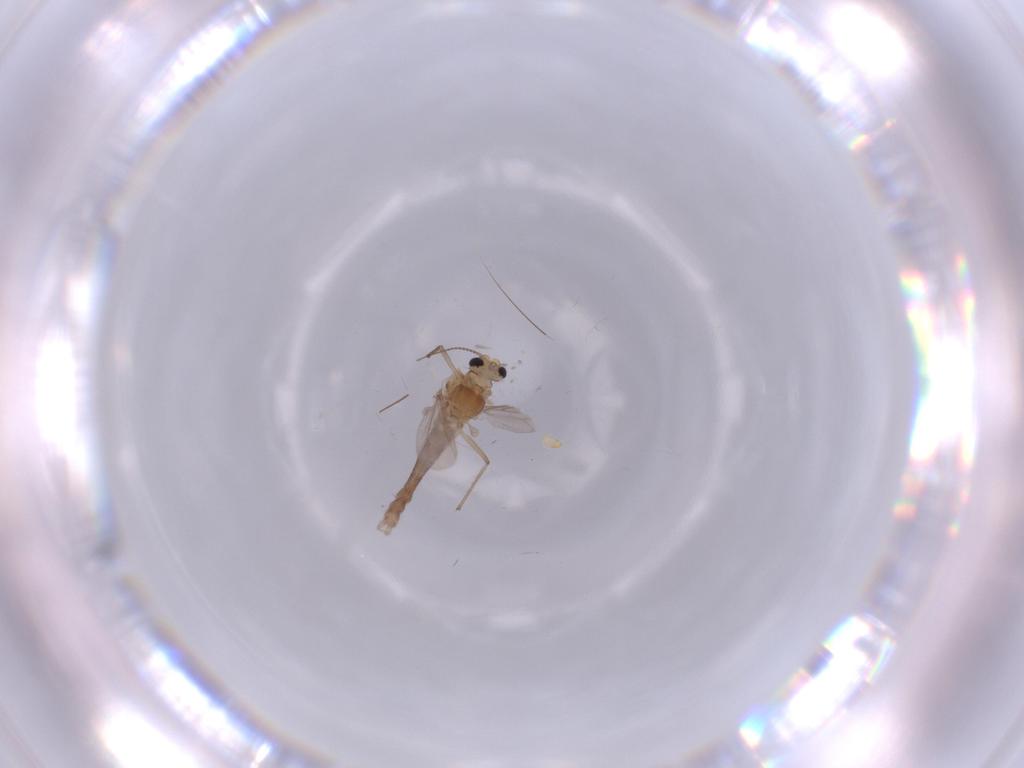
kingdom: Animalia
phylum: Arthropoda
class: Insecta
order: Diptera
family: Chironomidae
